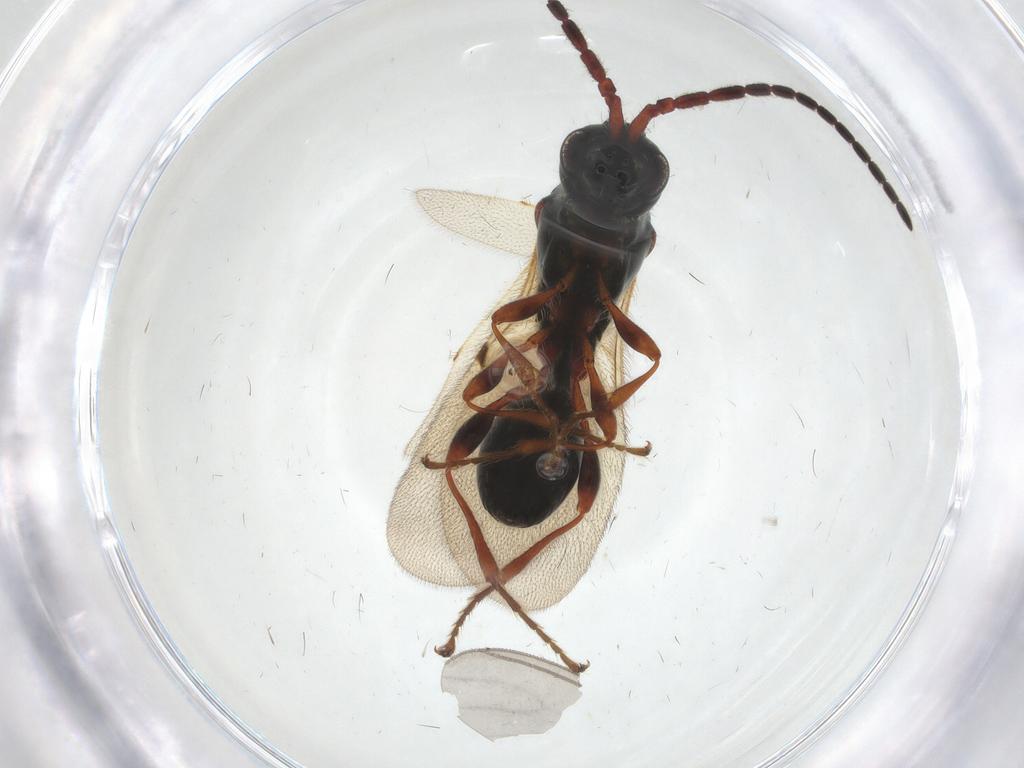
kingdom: Animalia
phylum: Arthropoda
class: Insecta
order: Hymenoptera
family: Diapriidae
